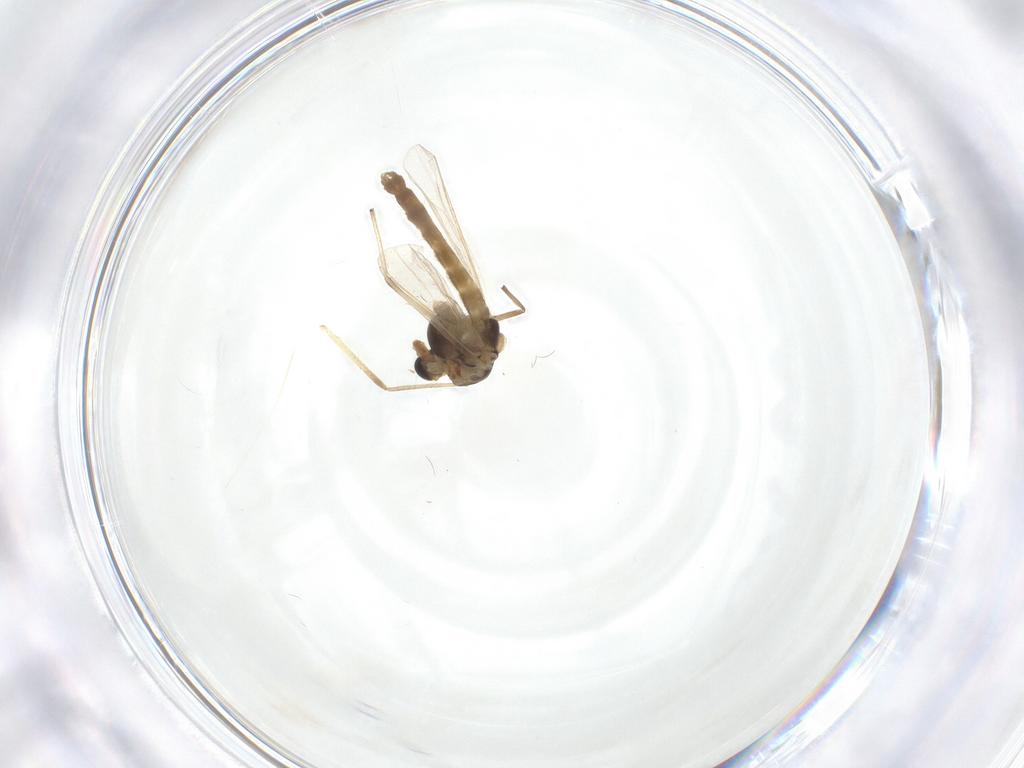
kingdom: Animalia
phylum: Arthropoda
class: Insecta
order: Diptera
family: Chironomidae
